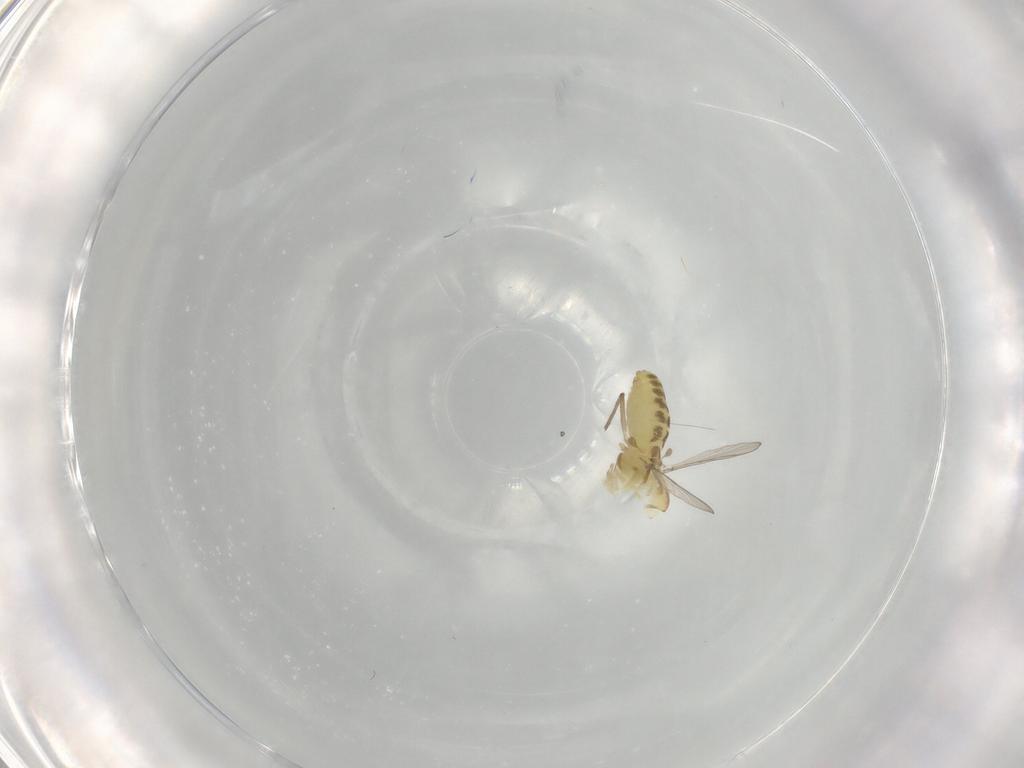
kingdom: Animalia
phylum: Arthropoda
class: Insecta
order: Diptera
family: Chironomidae
